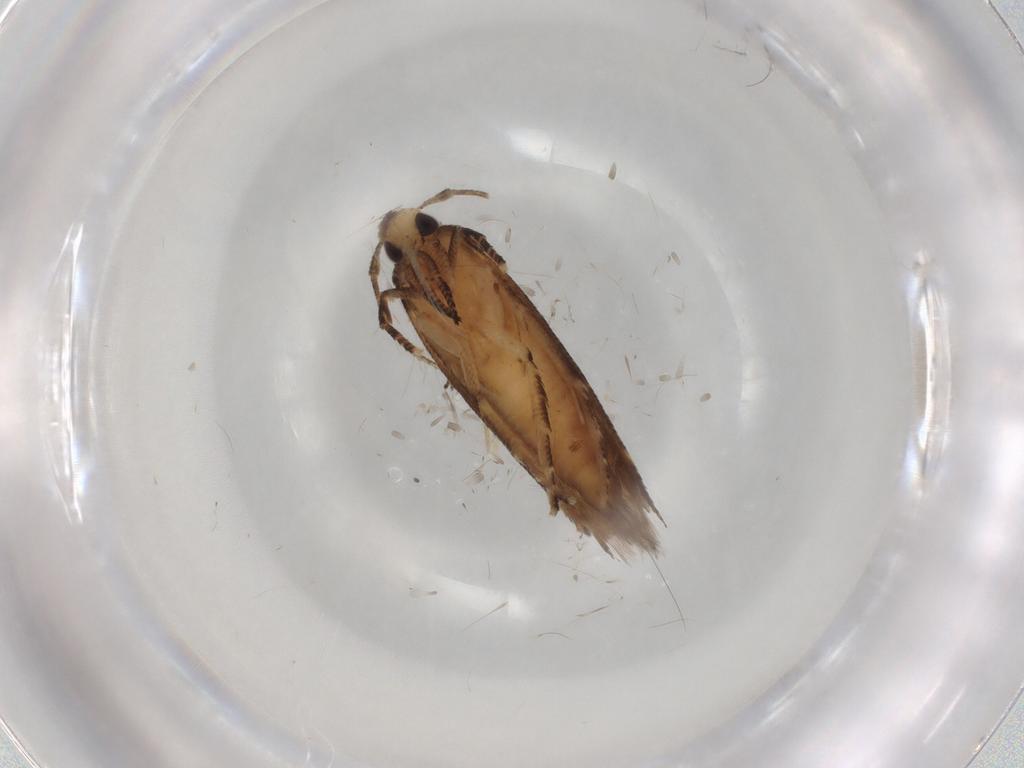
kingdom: Animalia
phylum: Arthropoda
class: Insecta
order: Lepidoptera
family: Cosmopterigidae
